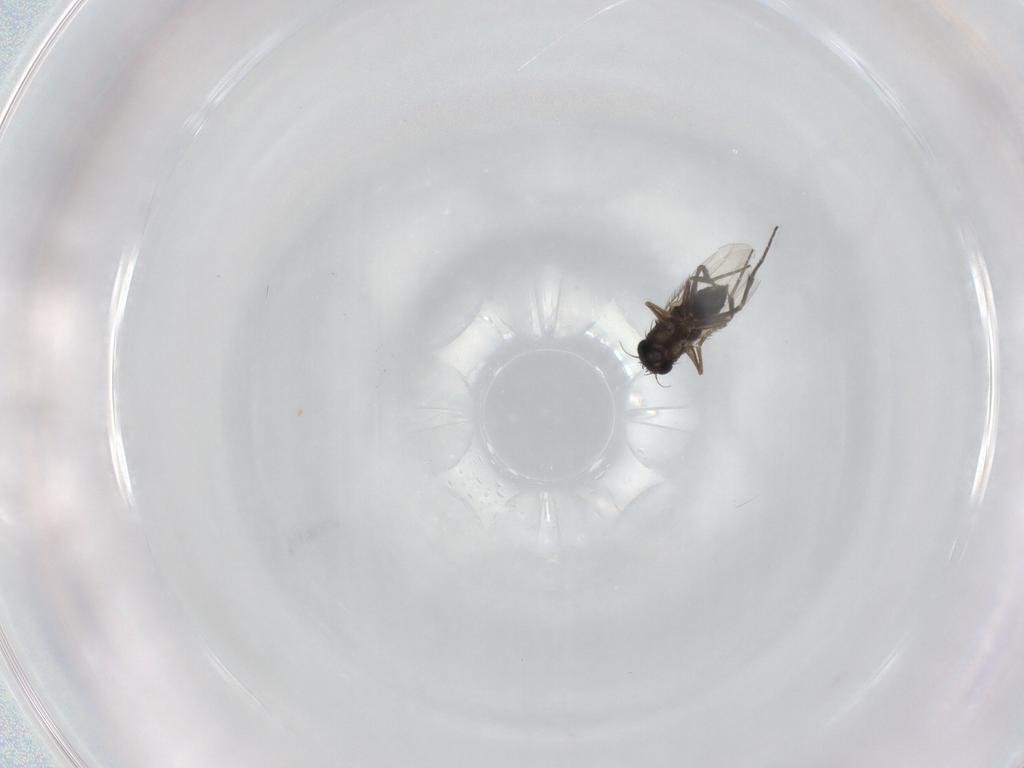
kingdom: Animalia
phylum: Arthropoda
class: Insecta
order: Diptera
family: Phoridae
